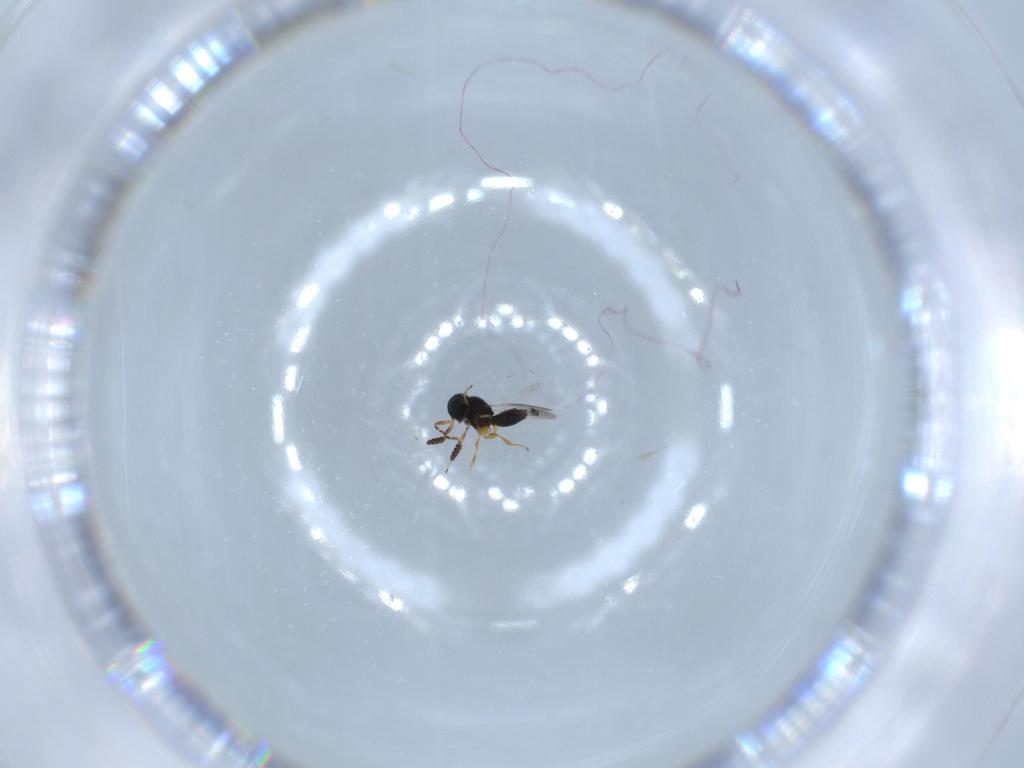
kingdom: Animalia
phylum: Arthropoda
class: Insecta
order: Hymenoptera
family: Scelionidae
